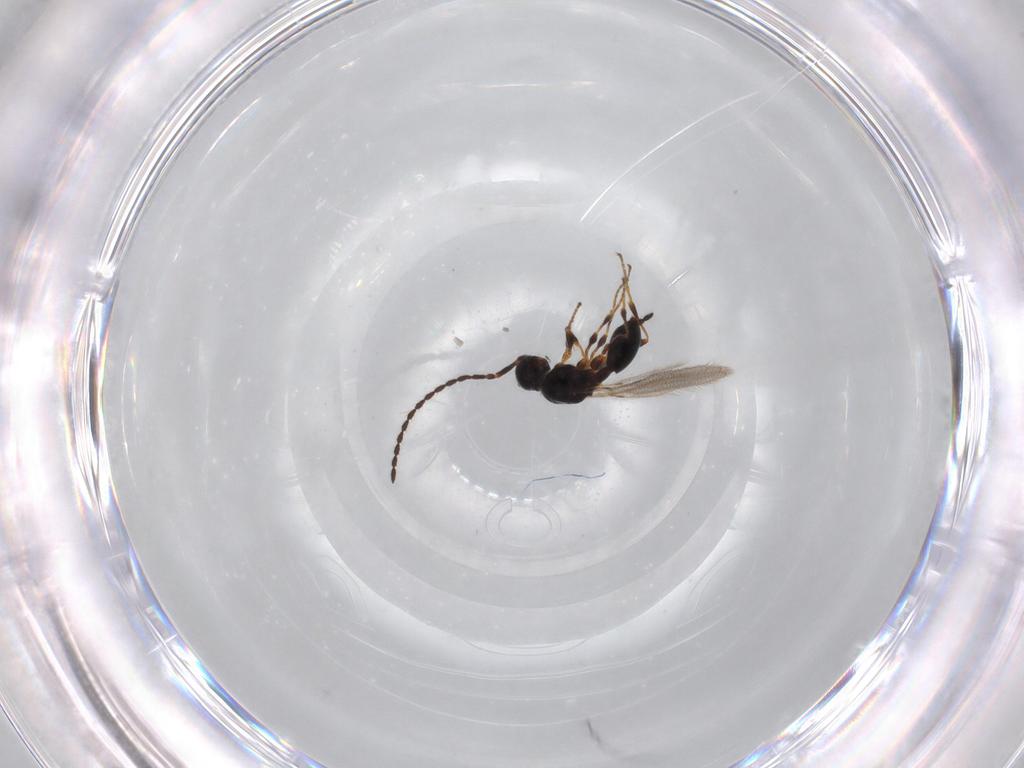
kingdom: Animalia
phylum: Arthropoda
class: Insecta
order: Hymenoptera
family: Diapriidae
